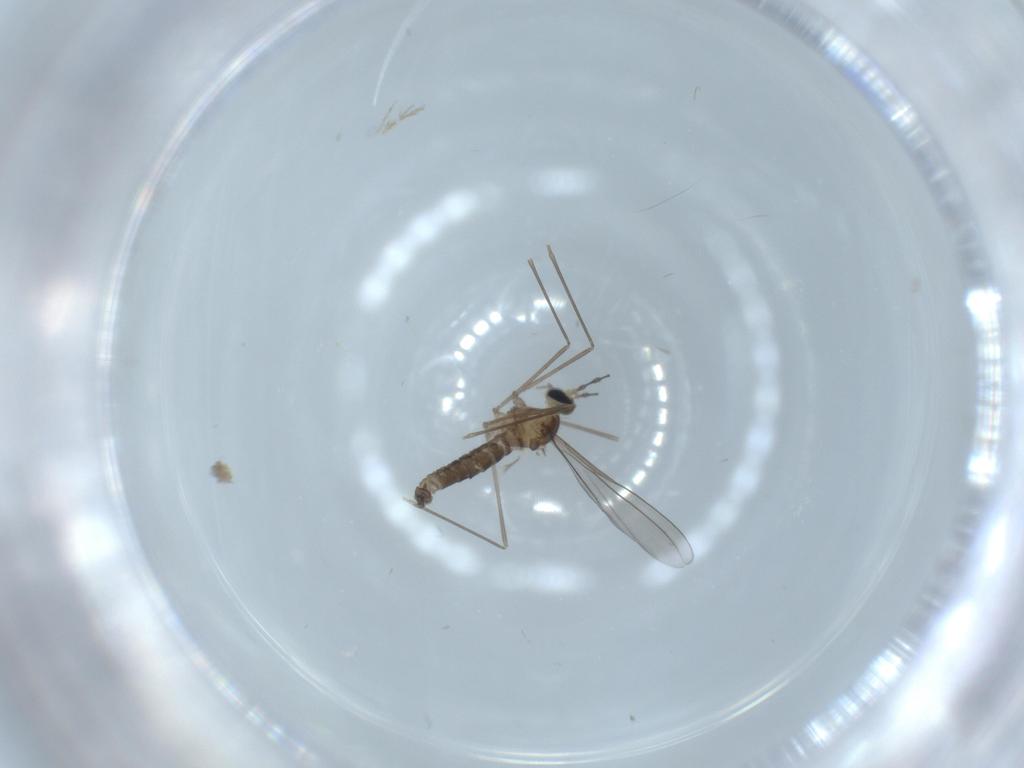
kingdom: Animalia
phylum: Arthropoda
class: Insecta
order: Diptera
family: Cecidomyiidae
